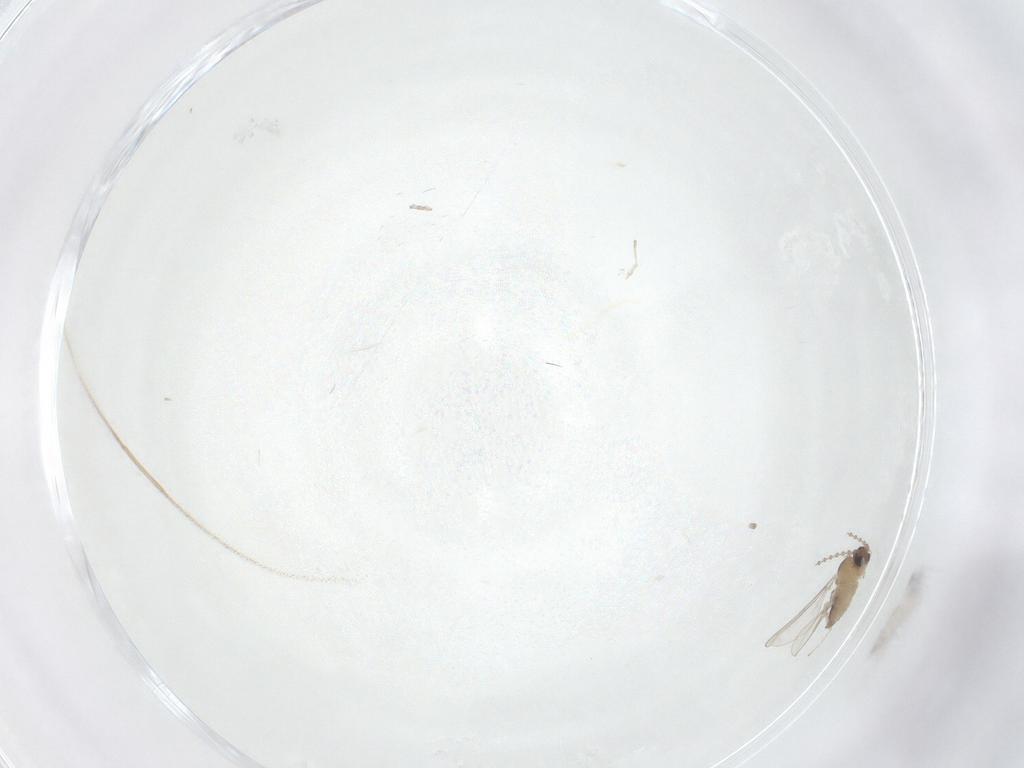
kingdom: Animalia
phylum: Arthropoda
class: Insecta
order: Diptera
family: Cecidomyiidae
